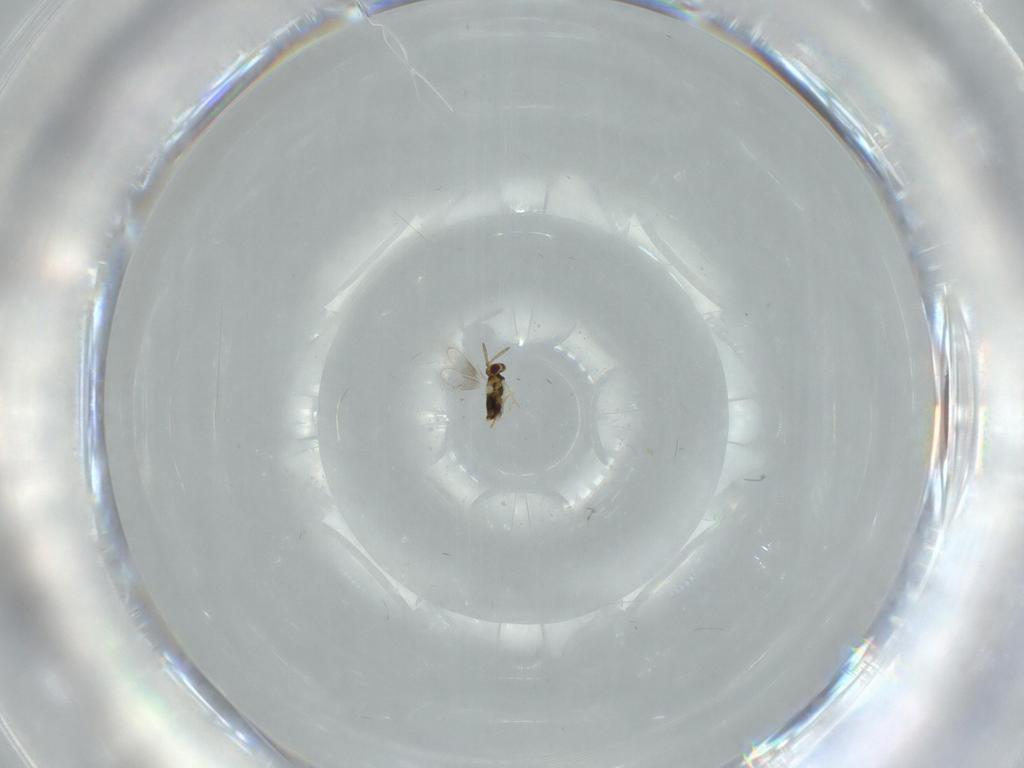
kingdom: Animalia
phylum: Arthropoda
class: Insecta
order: Hymenoptera
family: Aphelinidae
